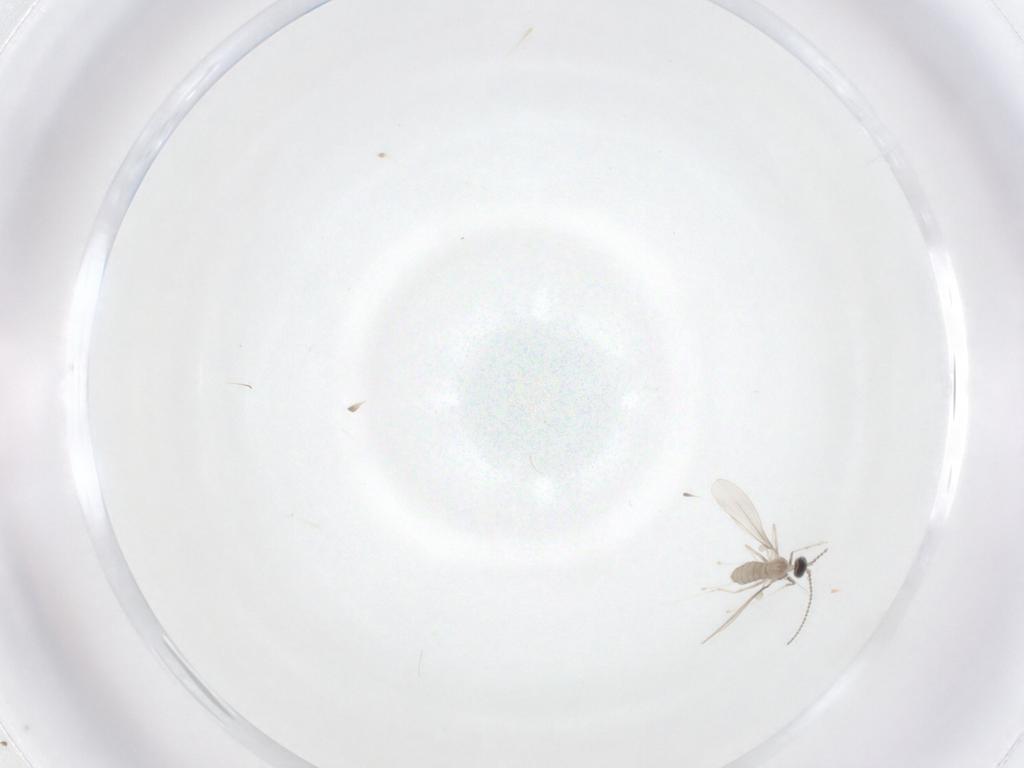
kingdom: Animalia
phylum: Arthropoda
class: Insecta
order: Diptera
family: Cecidomyiidae
